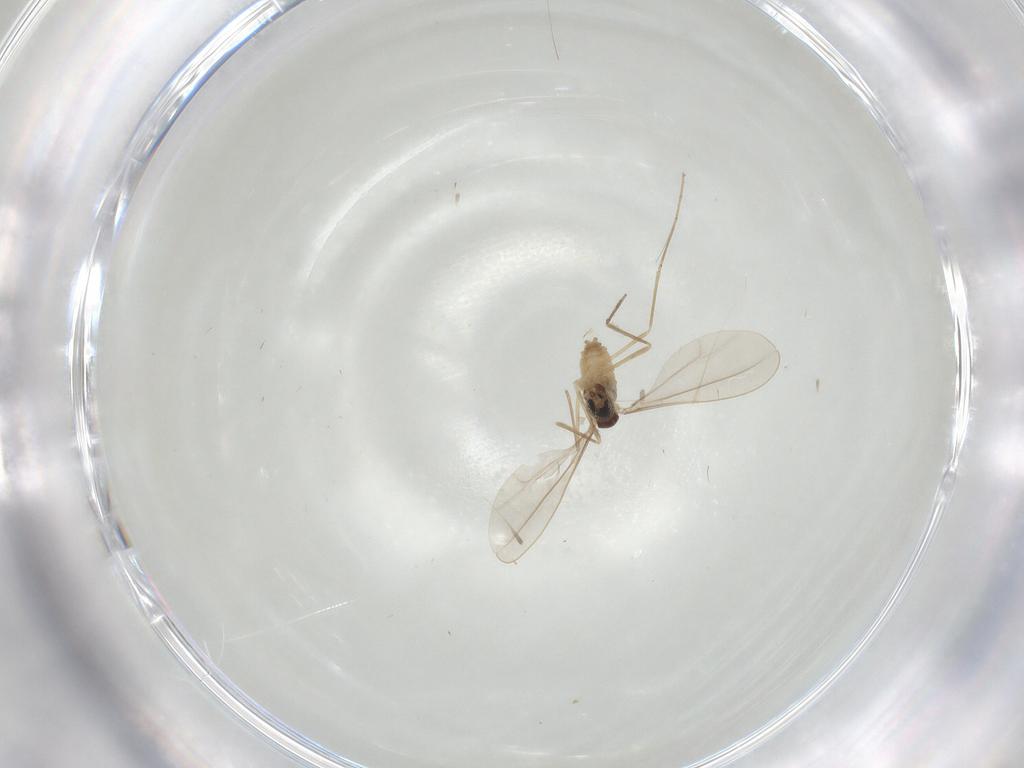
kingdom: Animalia
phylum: Arthropoda
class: Insecta
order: Diptera
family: Cecidomyiidae
